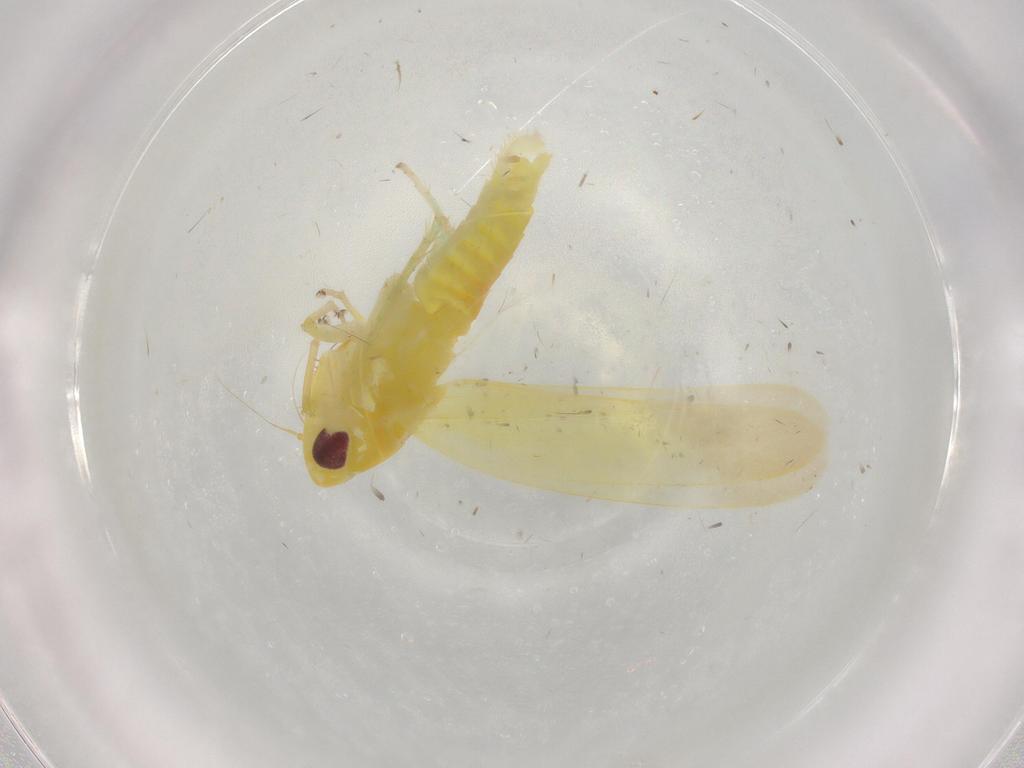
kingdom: Animalia
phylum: Arthropoda
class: Insecta
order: Hemiptera
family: Cicadellidae
